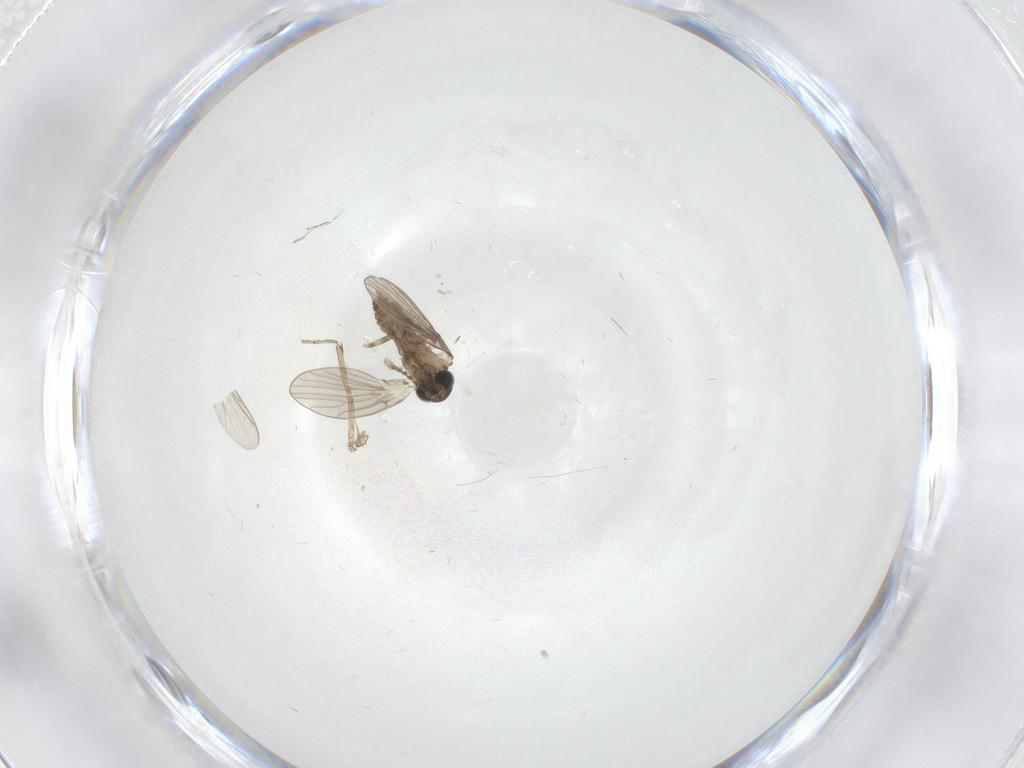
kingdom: Animalia
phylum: Arthropoda
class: Insecta
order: Diptera
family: Psychodidae
